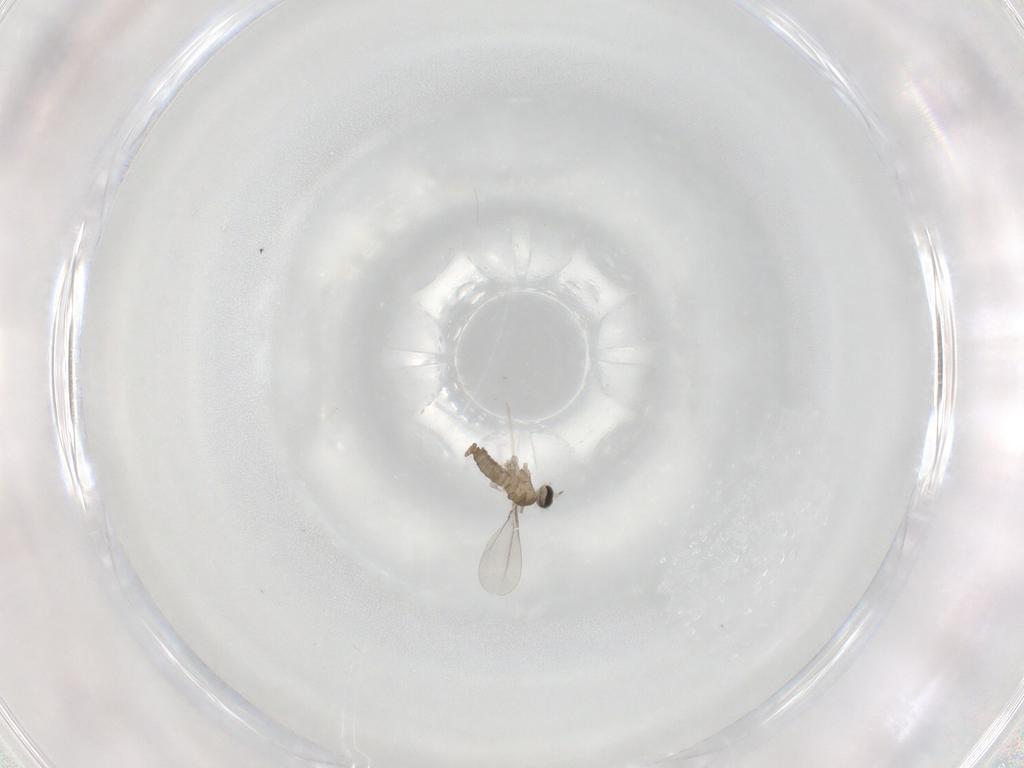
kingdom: Animalia
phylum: Arthropoda
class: Insecta
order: Diptera
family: Cecidomyiidae
